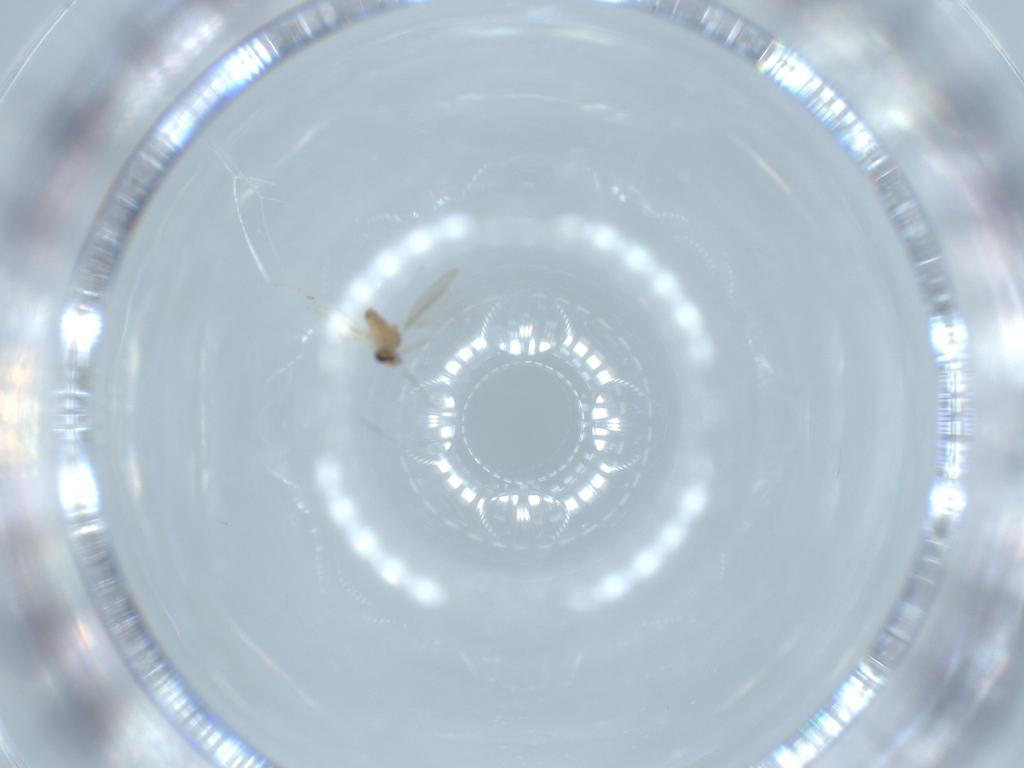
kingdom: Animalia
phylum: Arthropoda
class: Insecta
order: Diptera
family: Cecidomyiidae
